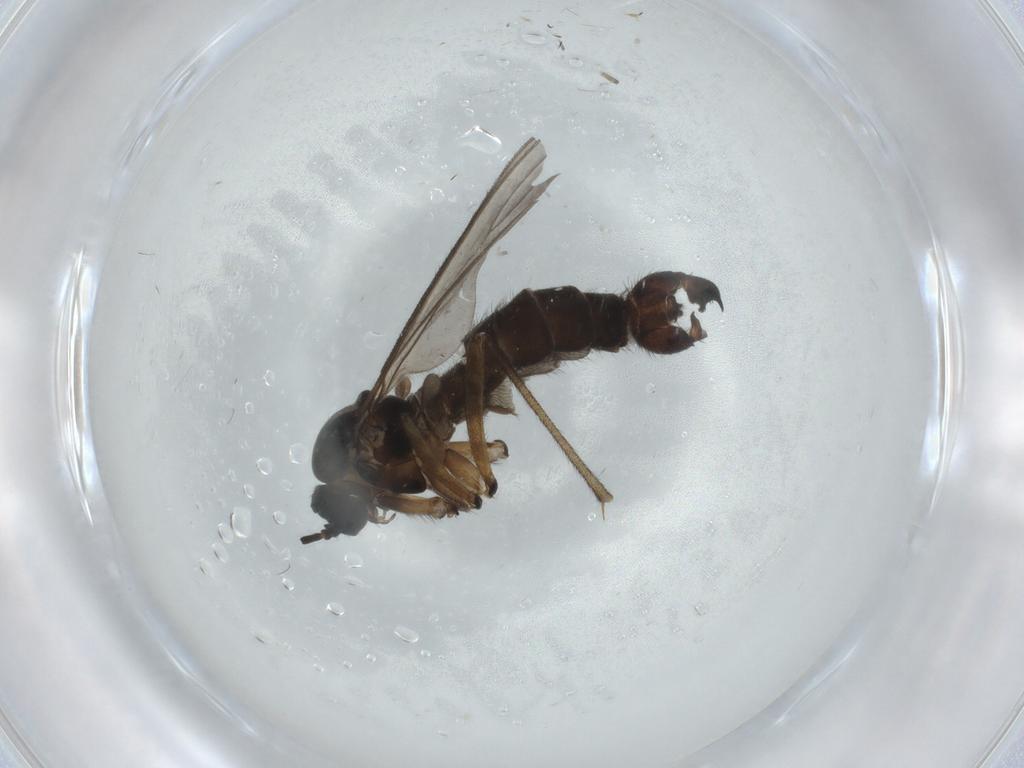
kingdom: Animalia
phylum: Arthropoda
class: Insecta
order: Diptera
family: Sciaridae
